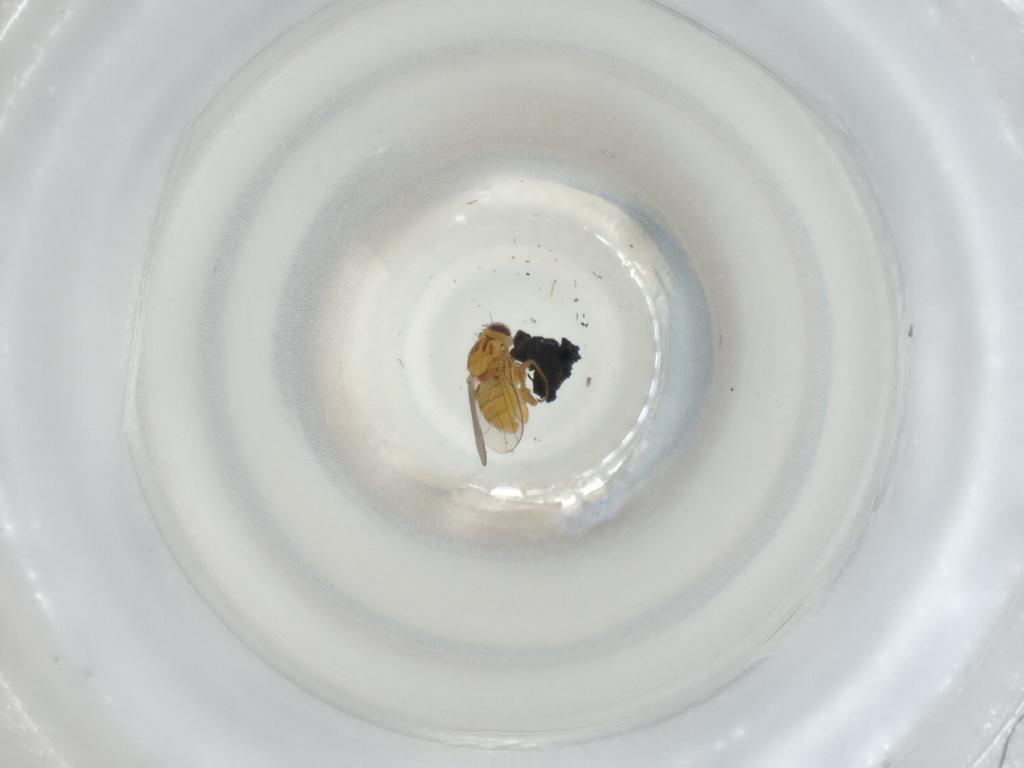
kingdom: Animalia
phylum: Arthropoda
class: Insecta
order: Diptera
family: Chloropidae
